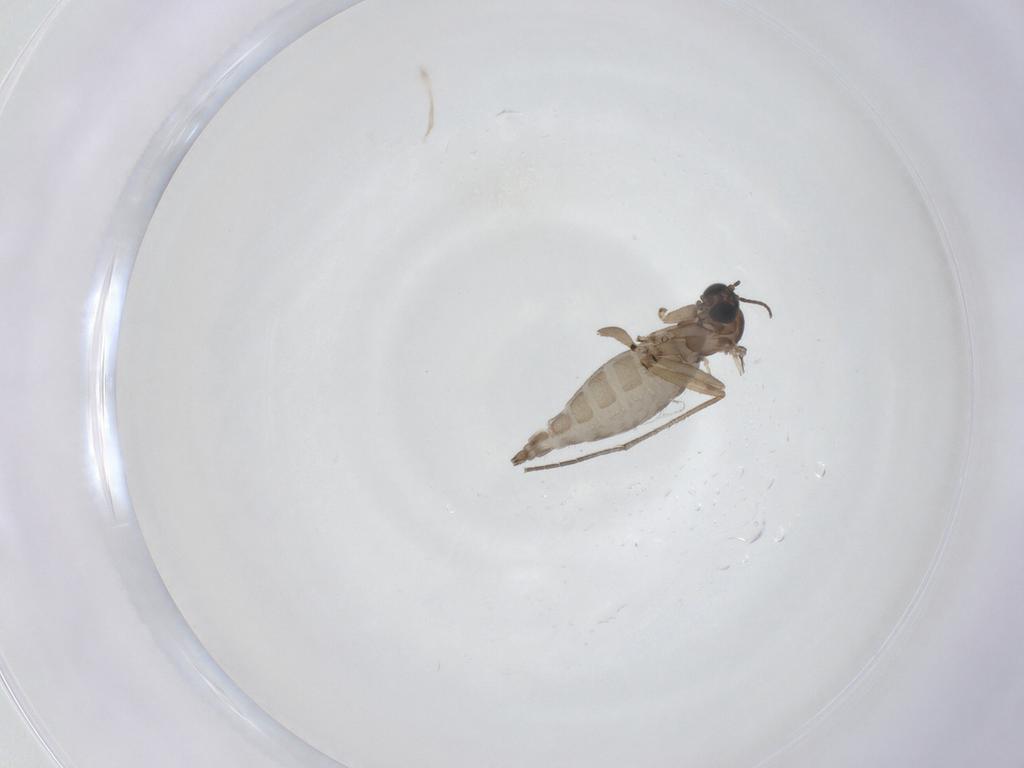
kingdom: Animalia
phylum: Arthropoda
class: Insecta
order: Diptera
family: Sciaridae
